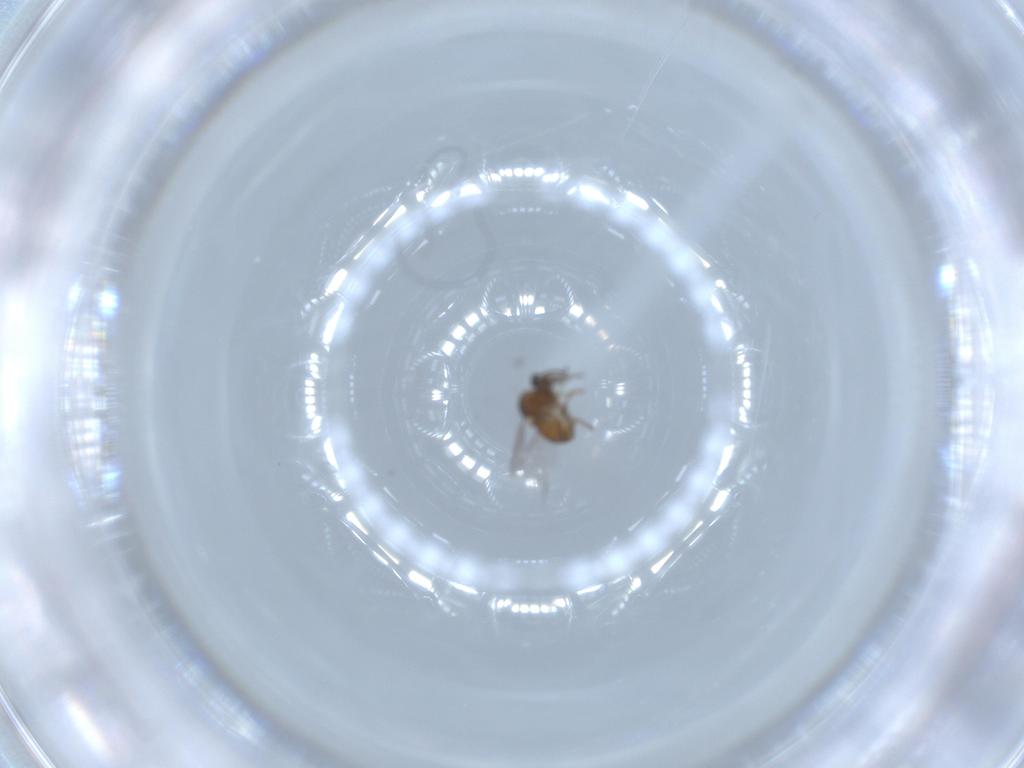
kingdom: Animalia
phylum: Arthropoda
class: Insecta
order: Diptera
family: Ceratopogonidae
